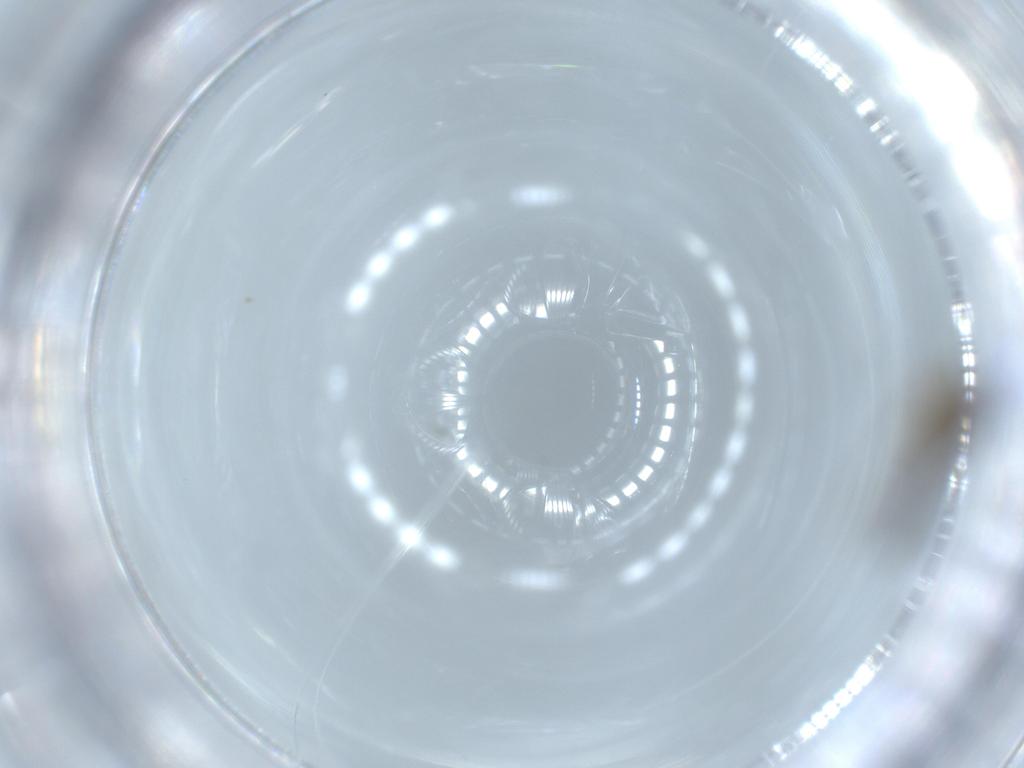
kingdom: Animalia
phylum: Arthropoda
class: Insecta
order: Diptera
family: Chironomidae
